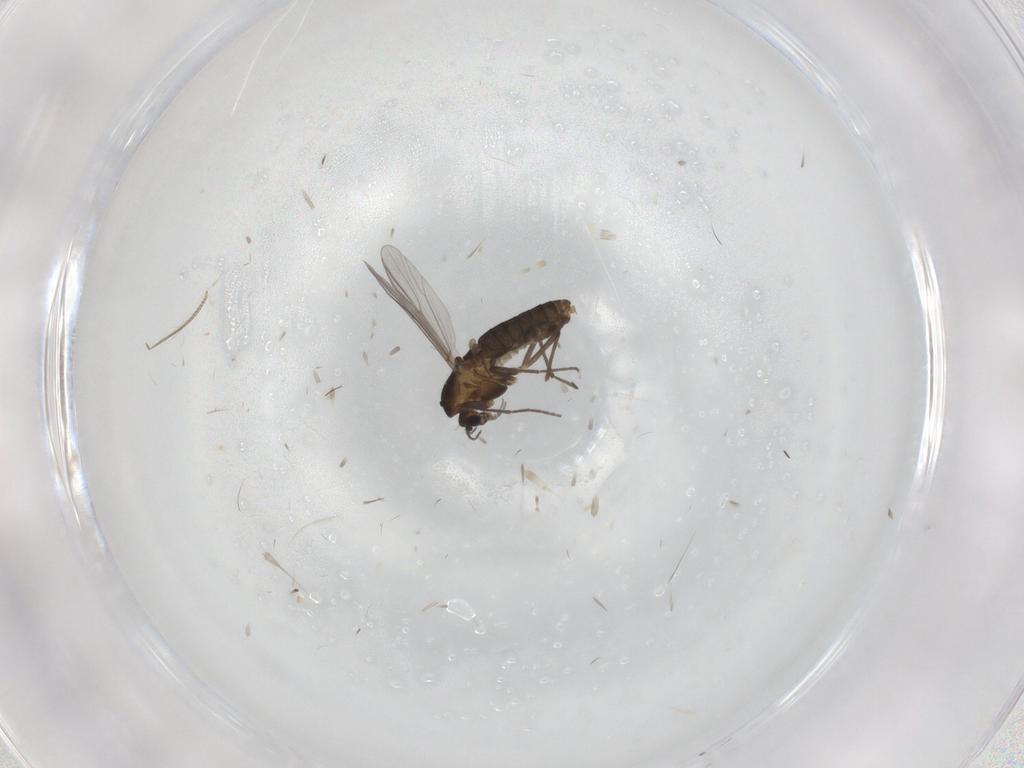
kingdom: Animalia
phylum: Arthropoda
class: Insecta
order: Diptera
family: Chironomidae
